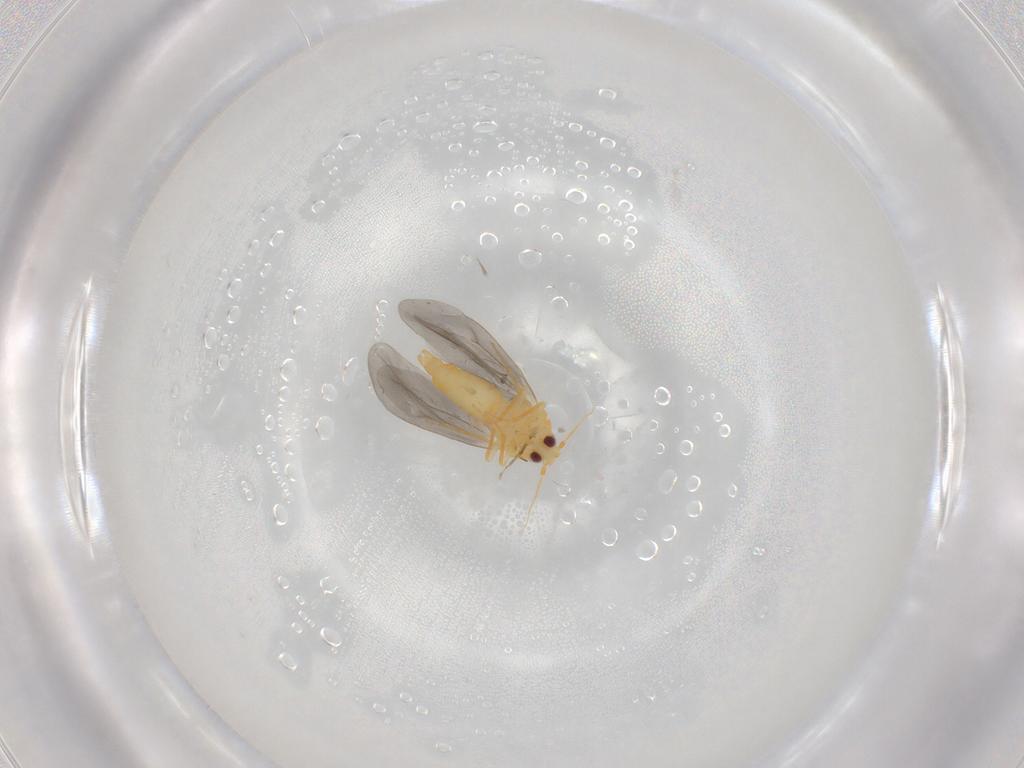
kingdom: Animalia
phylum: Arthropoda
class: Insecta
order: Hemiptera
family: Aleyrodidae
